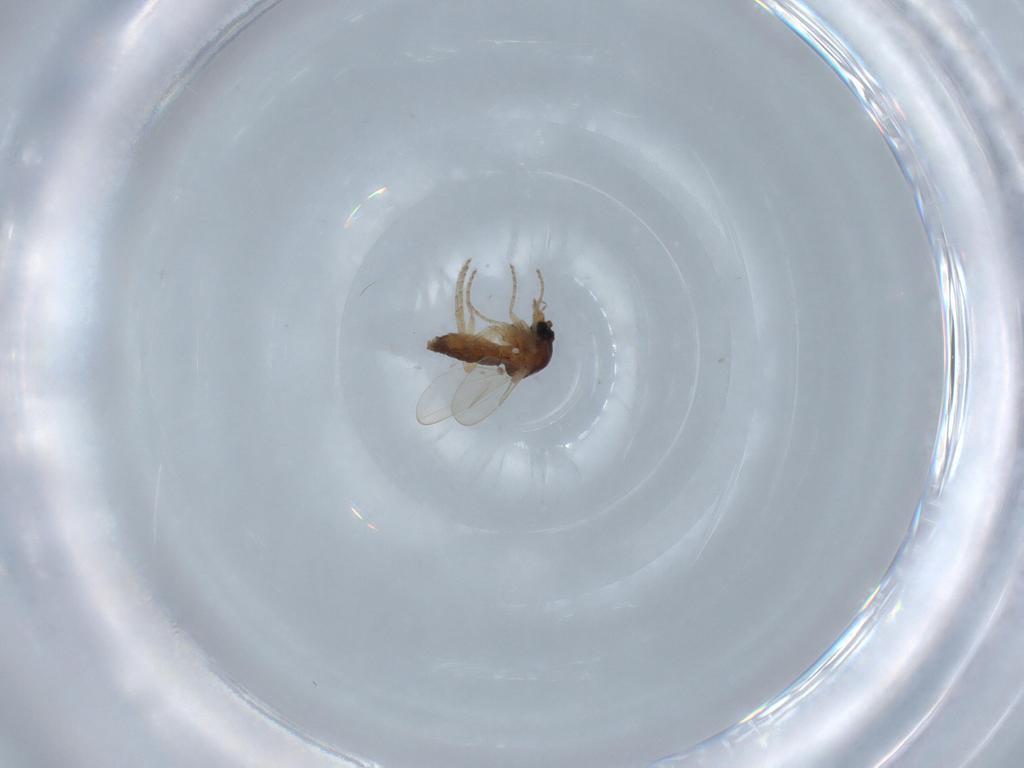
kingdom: Animalia
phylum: Arthropoda
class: Insecta
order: Diptera
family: Ceratopogonidae
